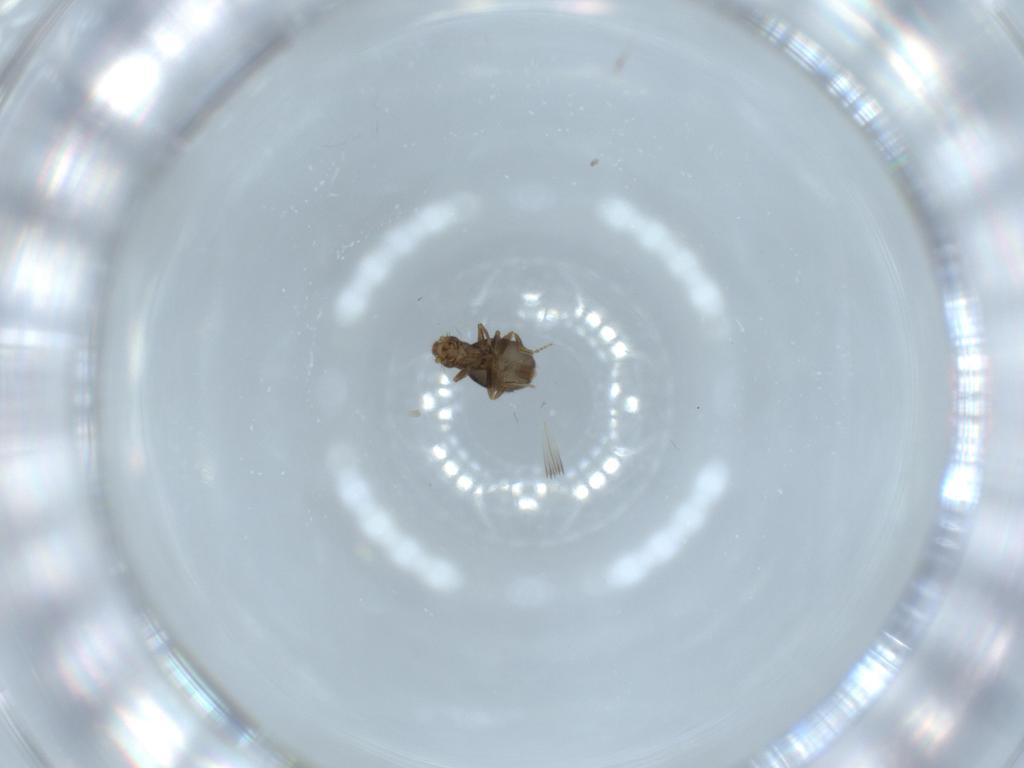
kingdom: Animalia
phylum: Arthropoda
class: Insecta
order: Diptera
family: Phoridae
